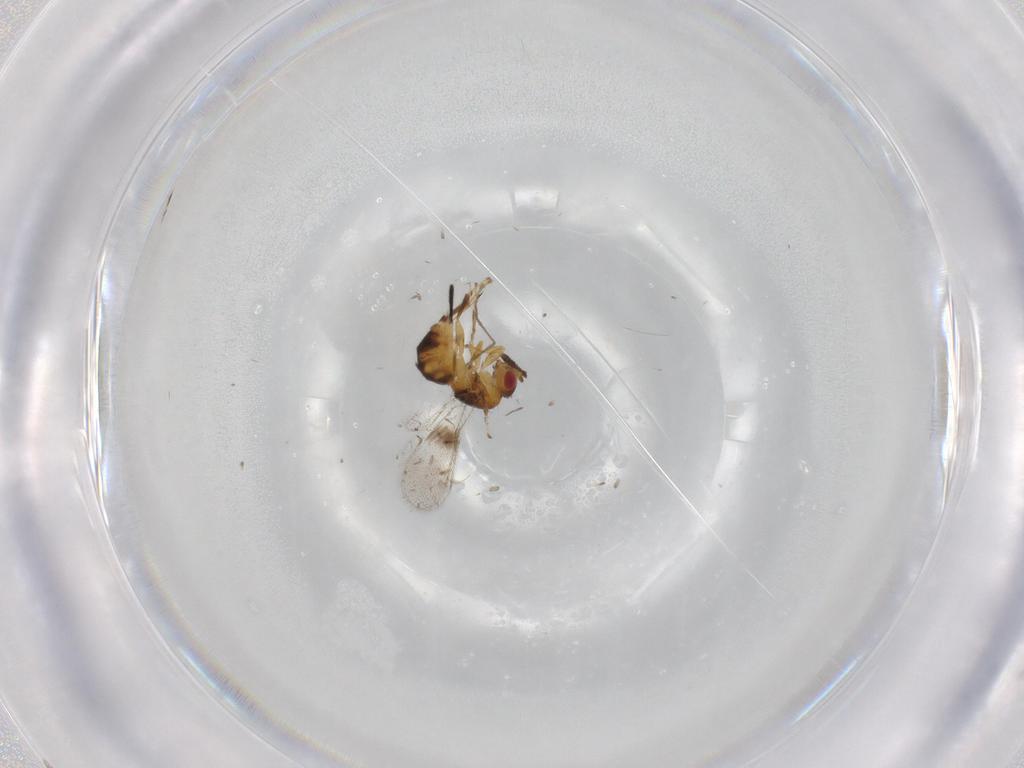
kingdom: Animalia
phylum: Arthropoda
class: Insecta
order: Hymenoptera
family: Torymidae
